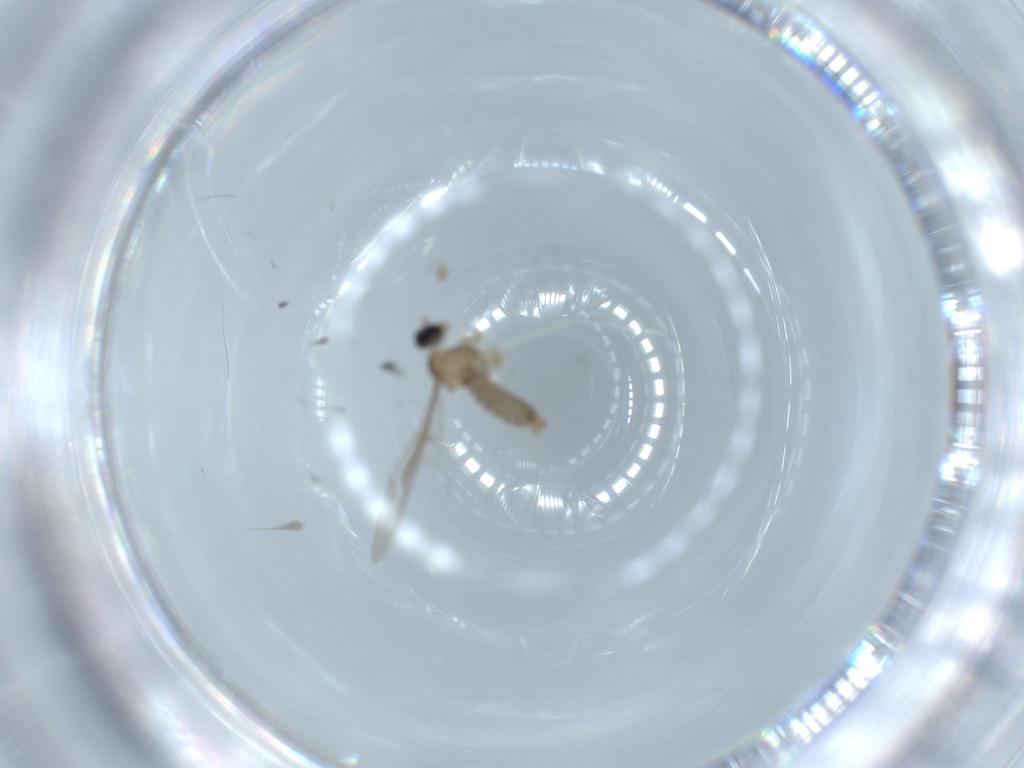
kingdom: Animalia
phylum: Arthropoda
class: Insecta
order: Diptera
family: Cecidomyiidae
